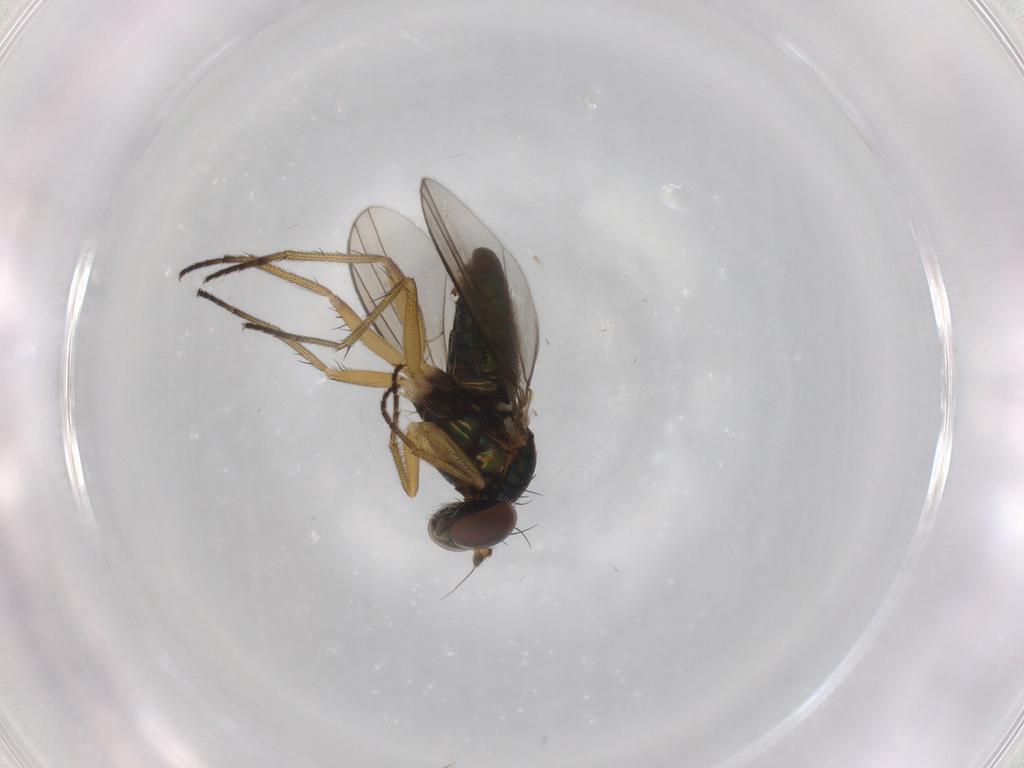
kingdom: Animalia
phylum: Arthropoda
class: Insecta
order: Diptera
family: Dolichopodidae
